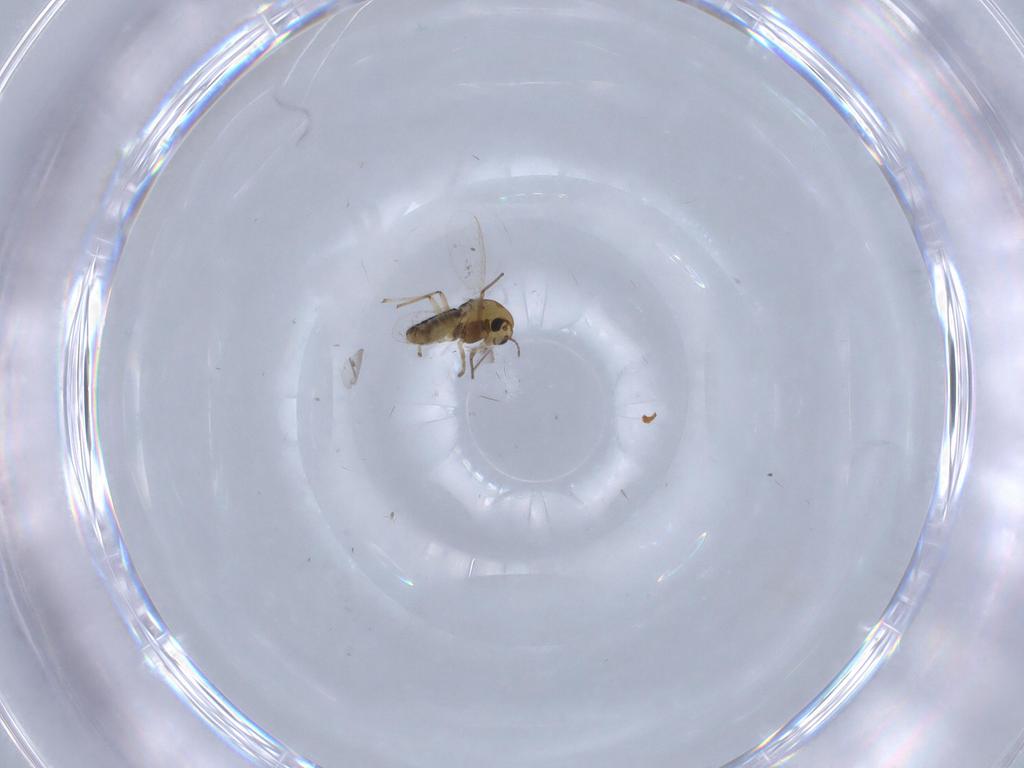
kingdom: Animalia
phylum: Arthropoda
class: Insecta
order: Diptera
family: Chironomidae
